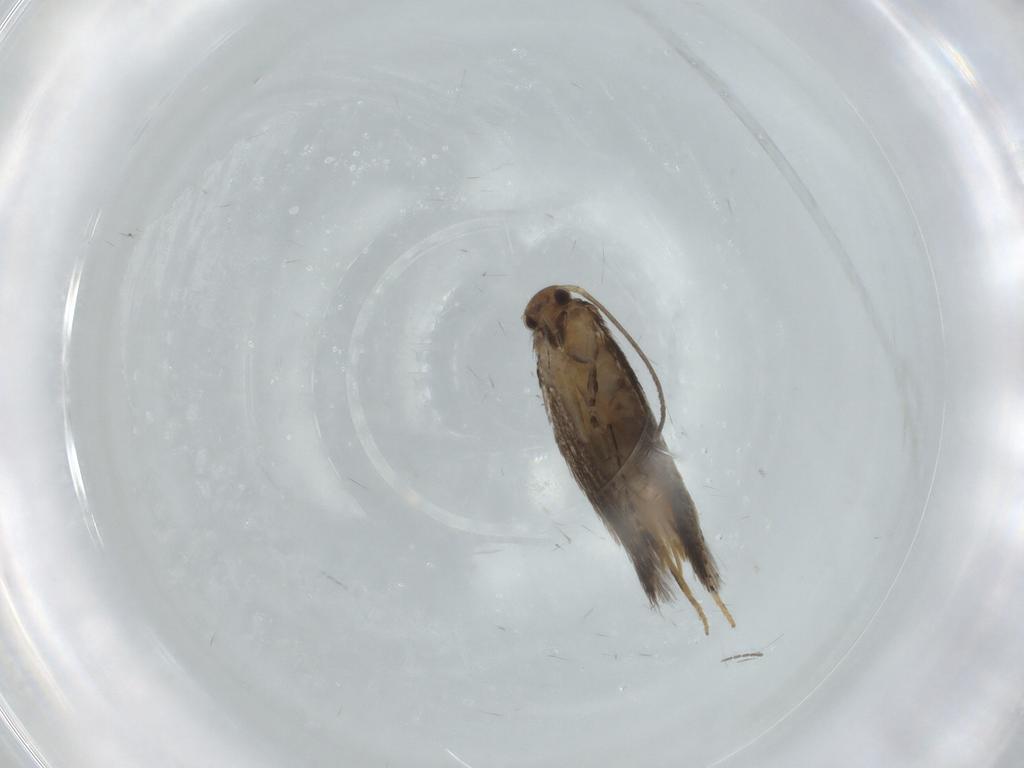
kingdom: Animalia
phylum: Arthropoda
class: Insecta
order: Lepidoptera
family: Elachistidae
